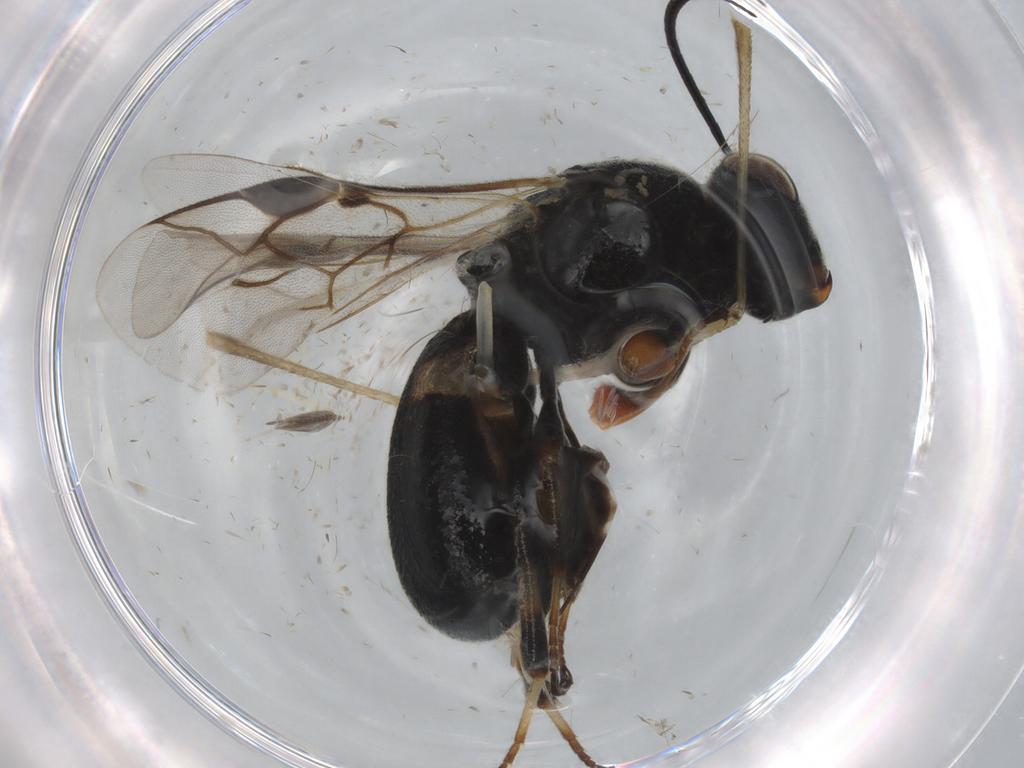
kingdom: Animalia
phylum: Arthropoda
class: Insecta
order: Hymenoptera
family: Braconidae
